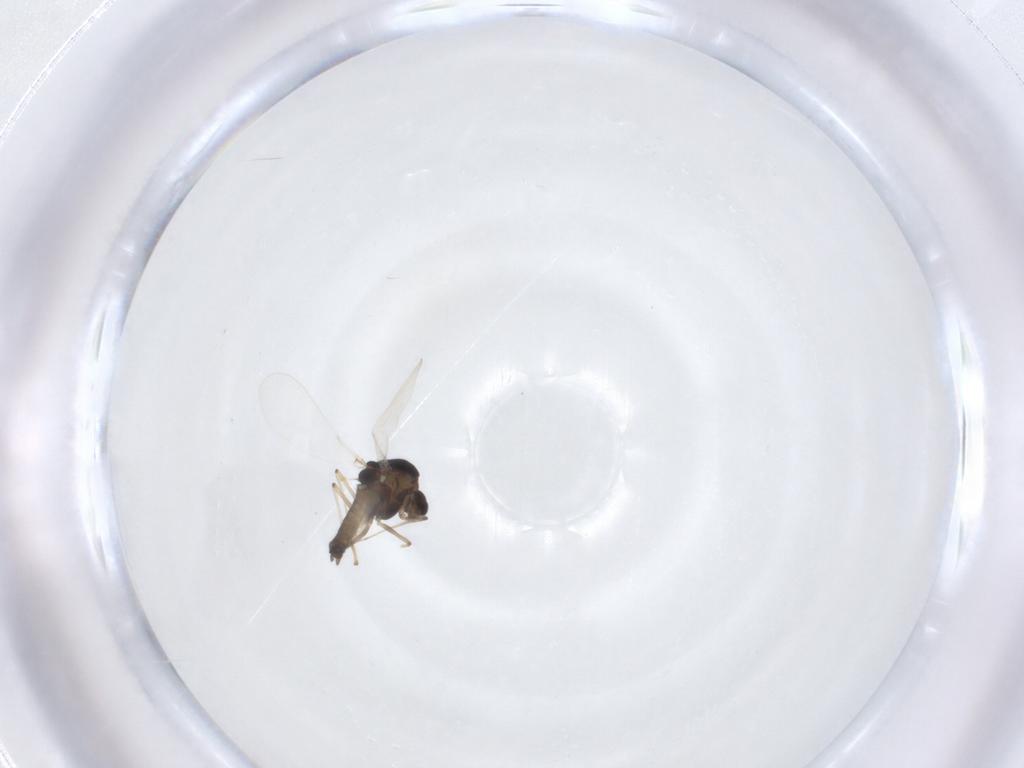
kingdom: Animalia
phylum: Arthropoda
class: Insecta
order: Diptera
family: Chironomidae
